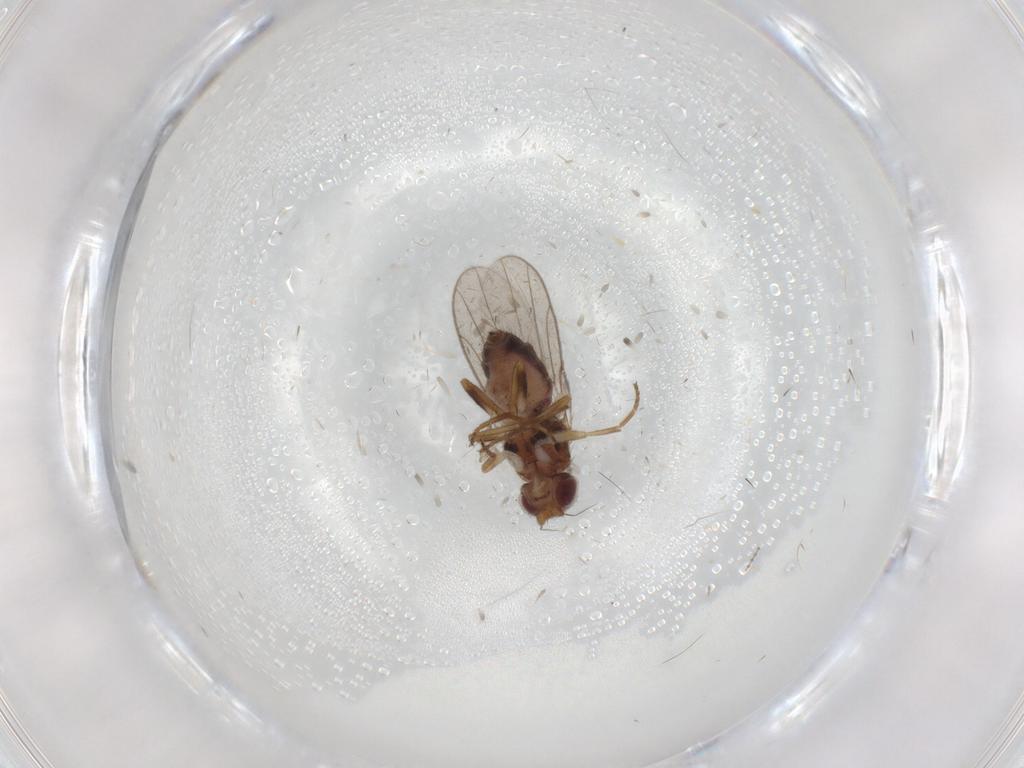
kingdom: Animalia
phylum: Arthropoda
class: Insecta
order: Diptera
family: Chloropidae
